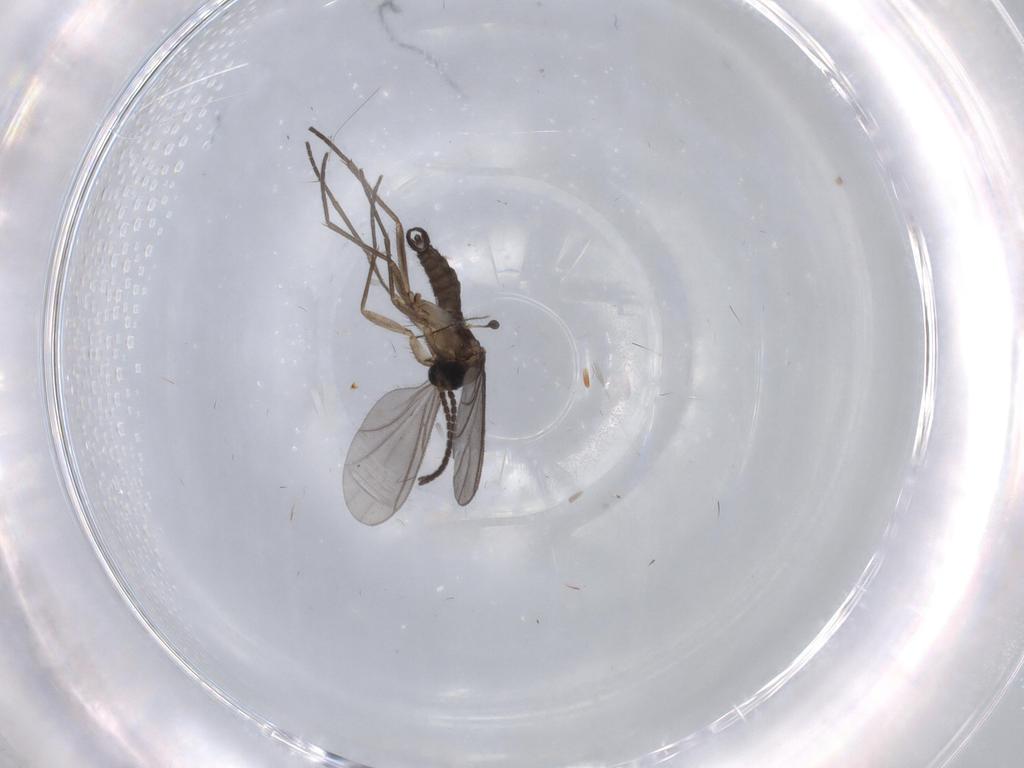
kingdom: Animalia
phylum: Arthropoda
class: Insecta
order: Diptera
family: Sciaridae
